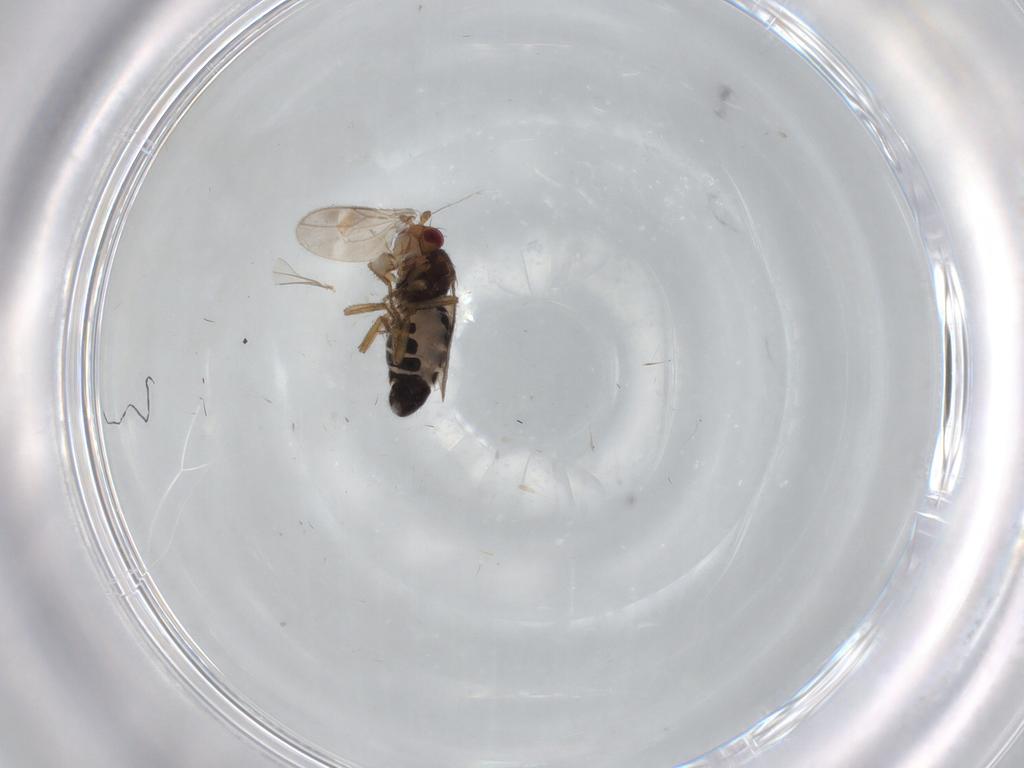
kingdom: Animalia
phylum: Arthropoda
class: Insecta
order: Diptera
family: Sphaeroceridae
